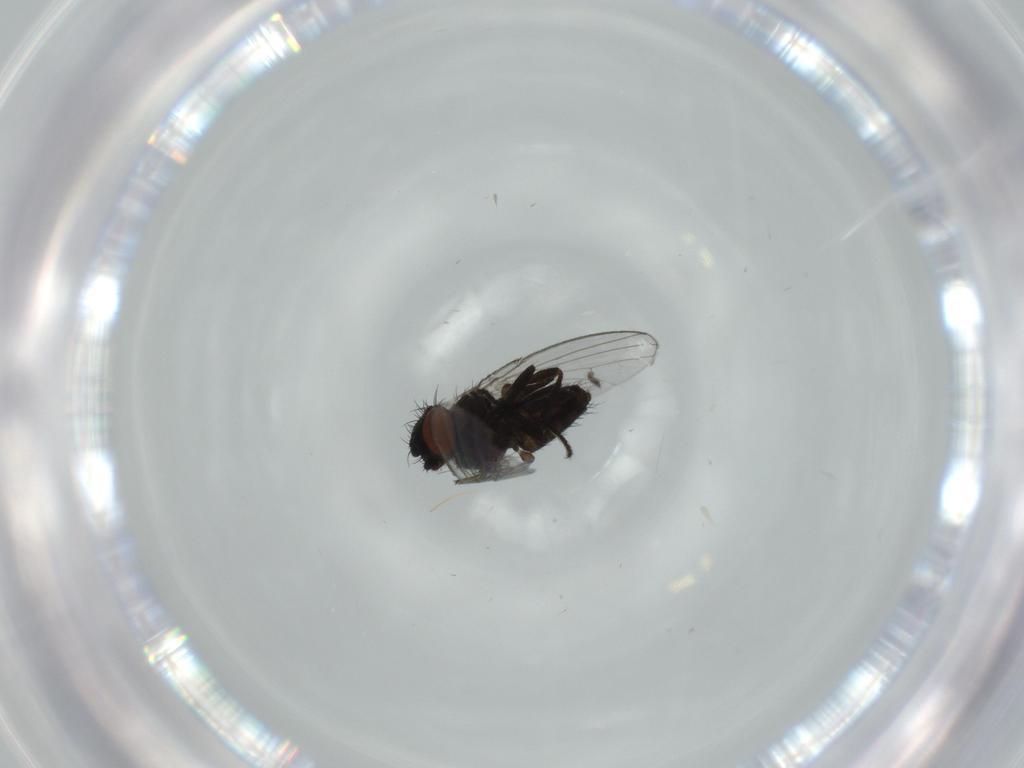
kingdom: Animalia
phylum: Arthropoda
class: Insecta
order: Diptera
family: Milichiidae
